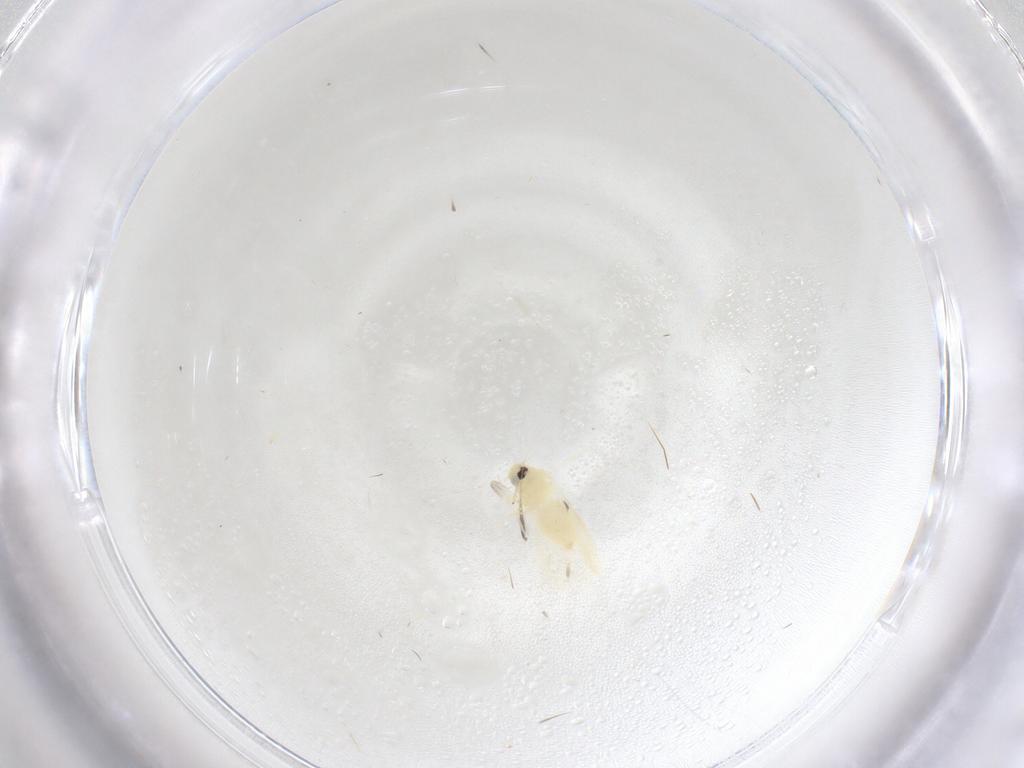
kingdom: Animalia
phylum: Arthropoda
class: Insecta
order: Hemiptera
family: Aleyrodidae
